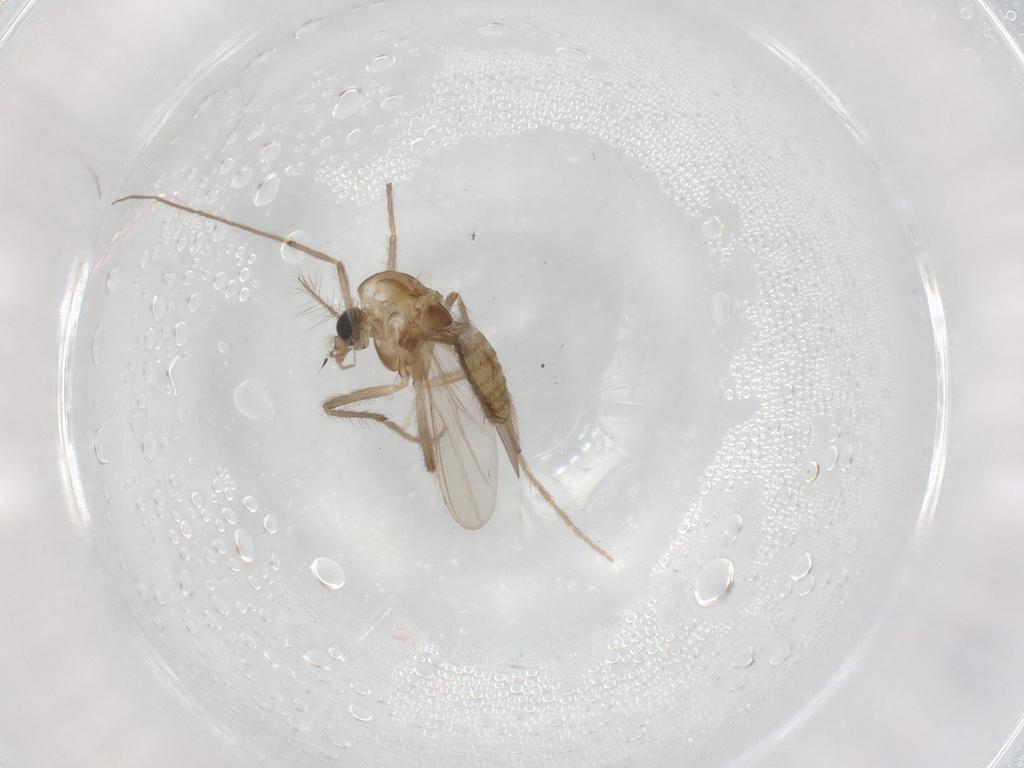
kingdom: Animalia
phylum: Arthropoda
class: Insecta
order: Diptera
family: Chironomidae
